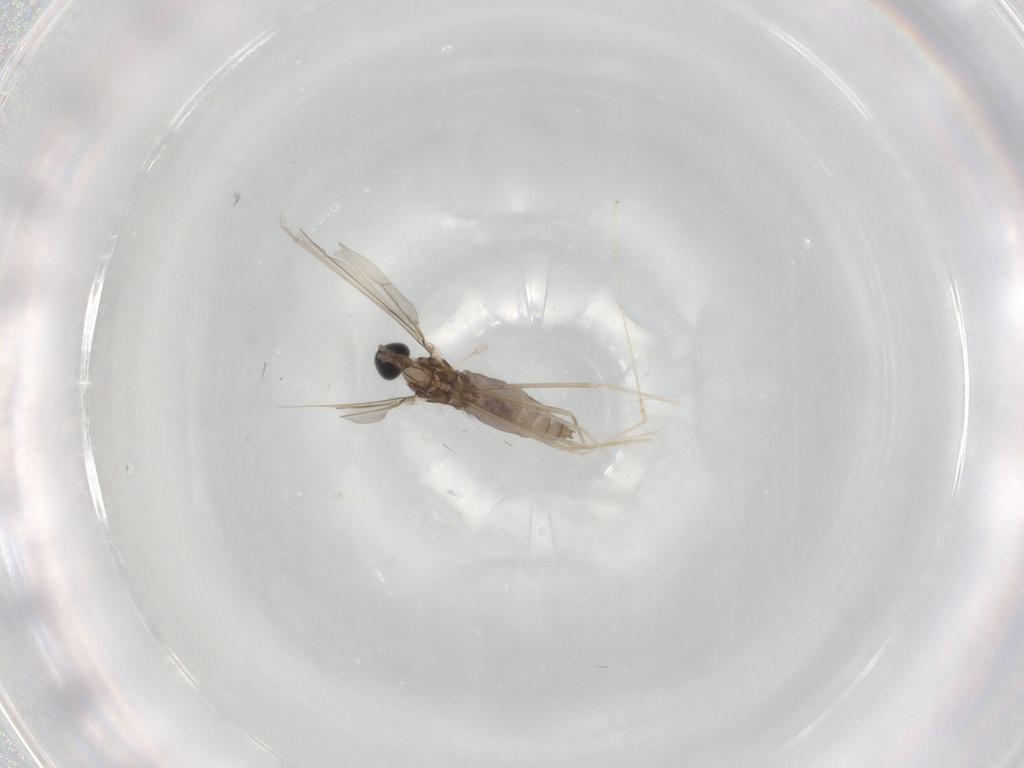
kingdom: Animalia
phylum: Arthropoda
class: Insecta
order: Diptera
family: Cecidomyiidae
